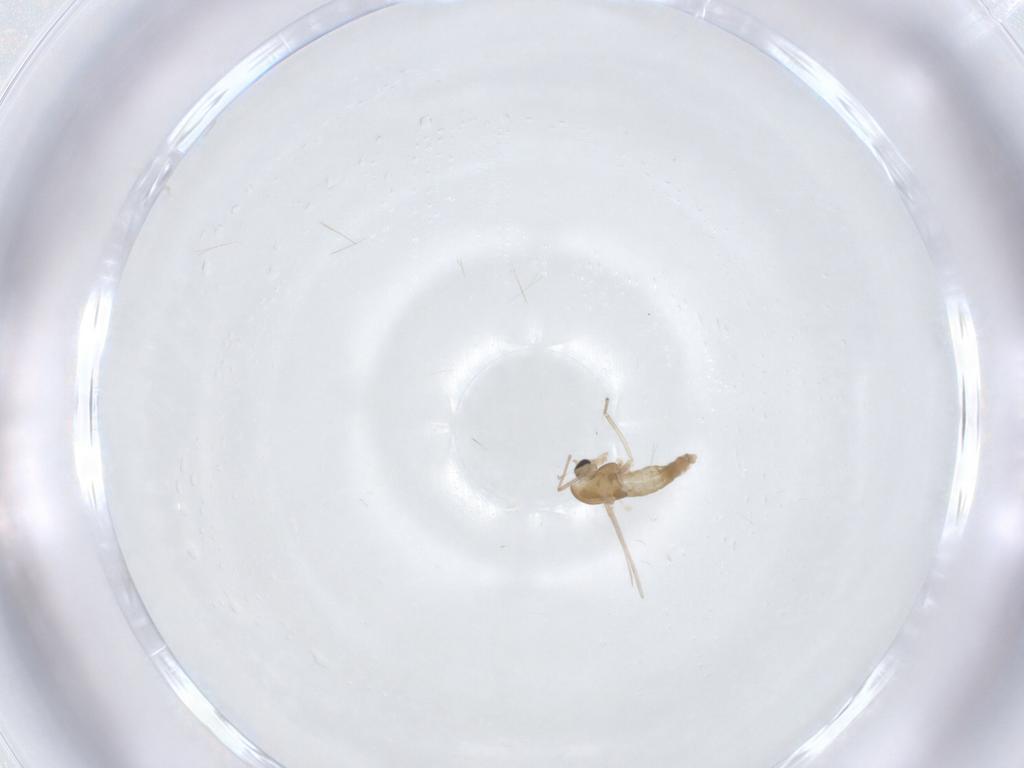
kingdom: Animalia
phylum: Arthropoda
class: Insecta
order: Diptera
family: Chironomidae
